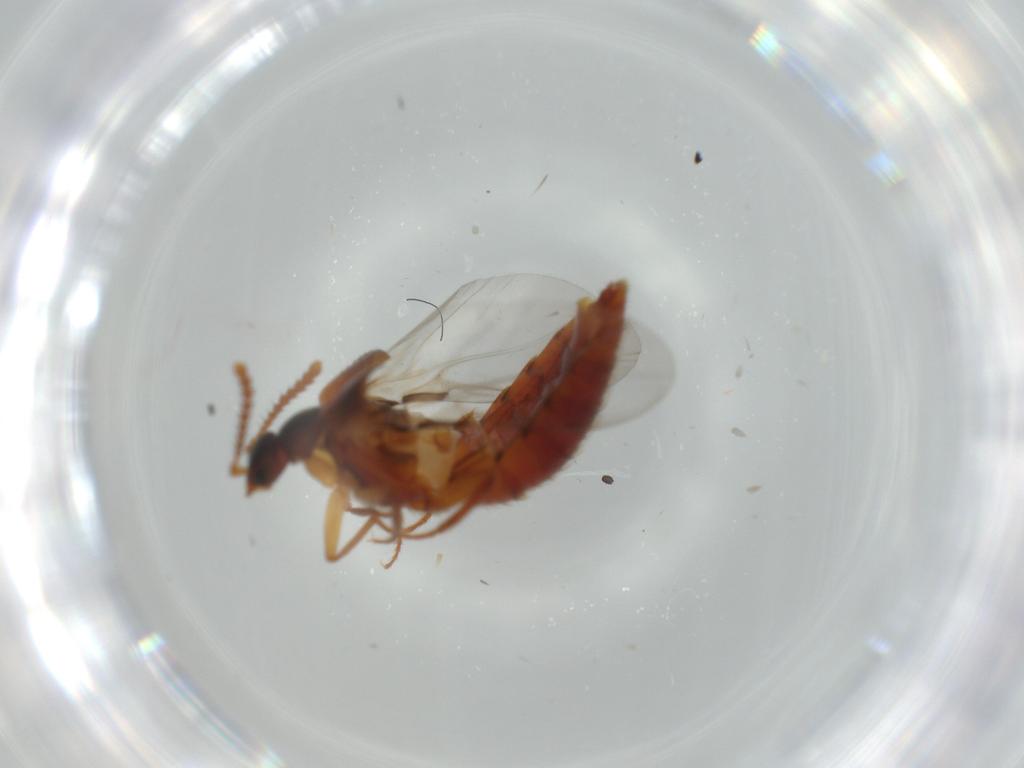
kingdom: Animalia
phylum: Arthropoda
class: Insecta
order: Coleoptera
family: Staphylinidae
